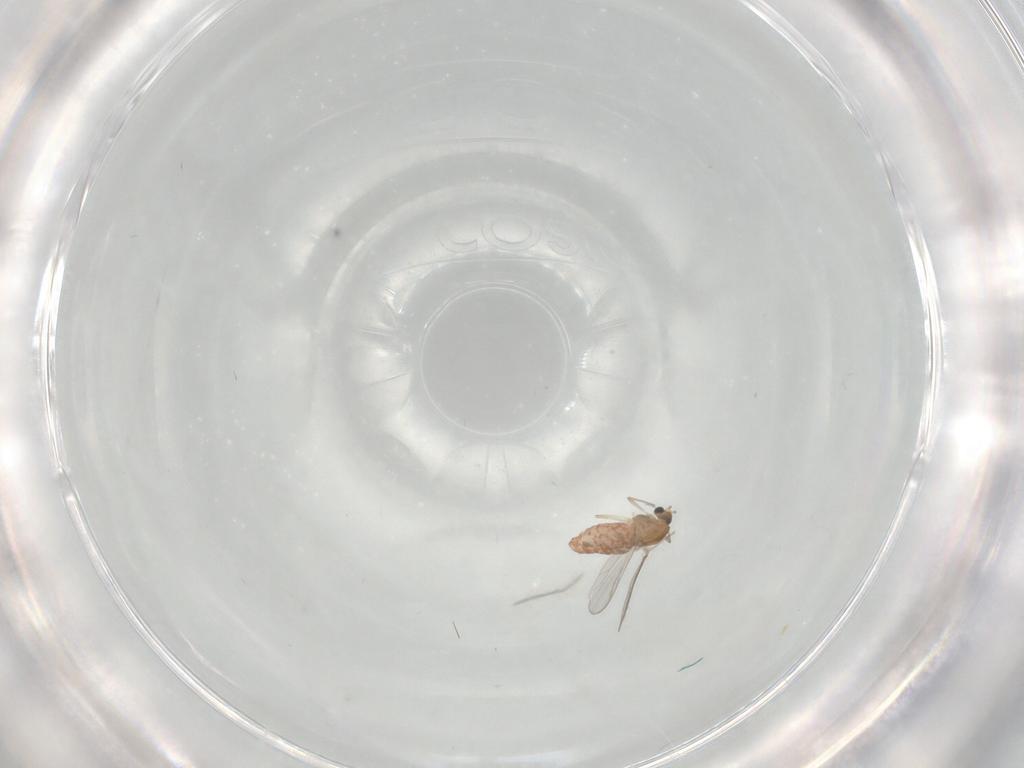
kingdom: Animalia
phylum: Arthropoda
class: Insecta
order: Diptera
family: Chironomidae
